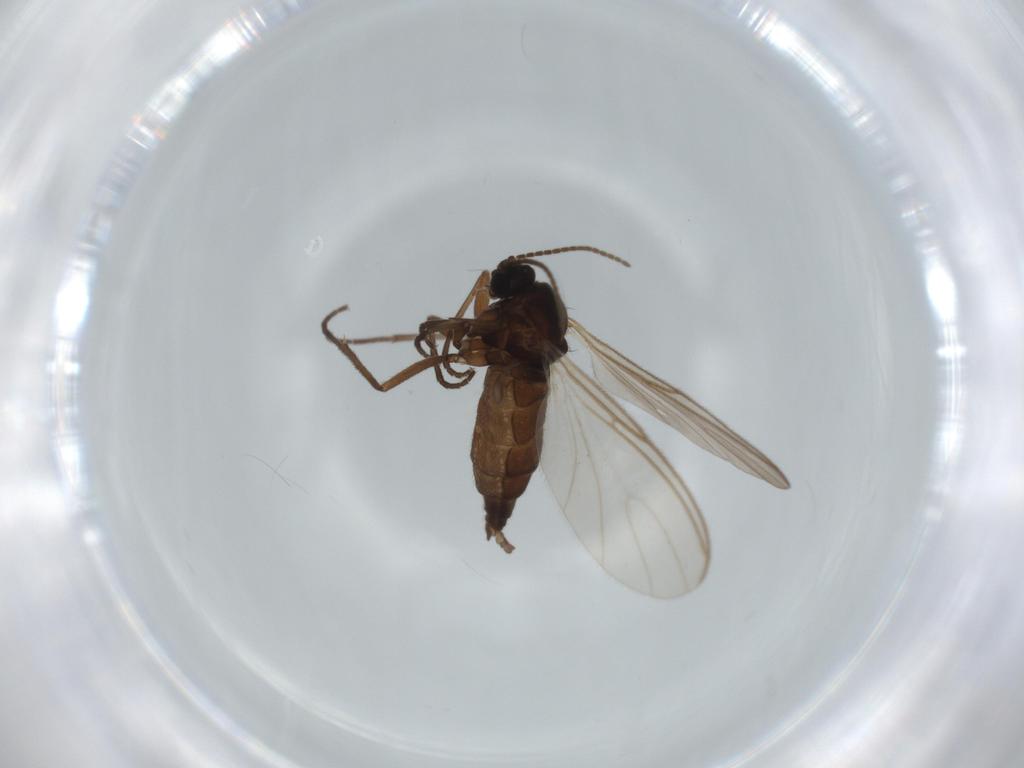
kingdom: Animalia
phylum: Arthropoda
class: Insecta
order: Diptera
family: Sciaridae
